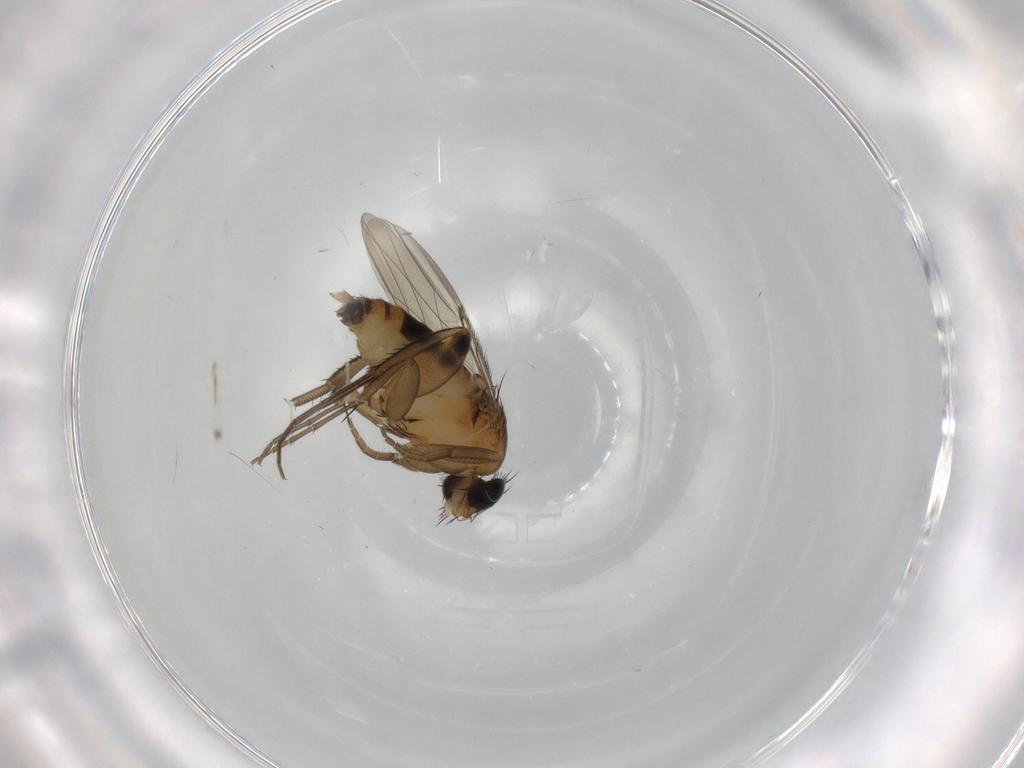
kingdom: Animalia
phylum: Arthropoda
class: Insecta
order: Diptera
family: Phoridae
